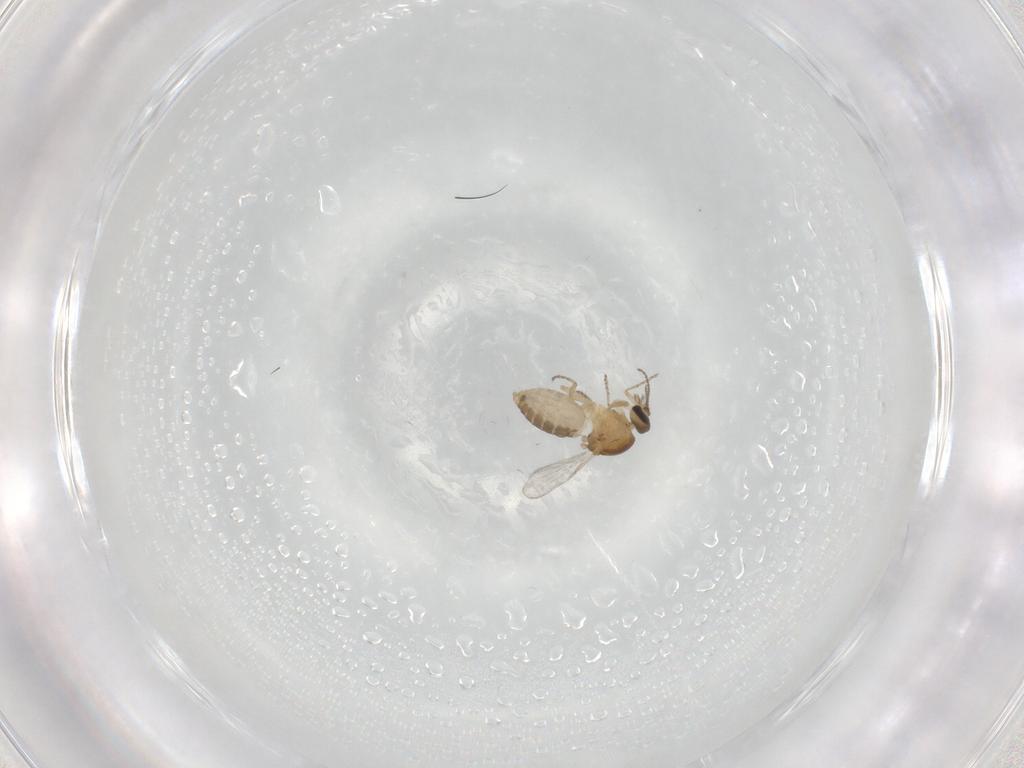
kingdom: Animalia
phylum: Arthropoda
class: Insecta
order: Diptera
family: Ceratopogonidae
